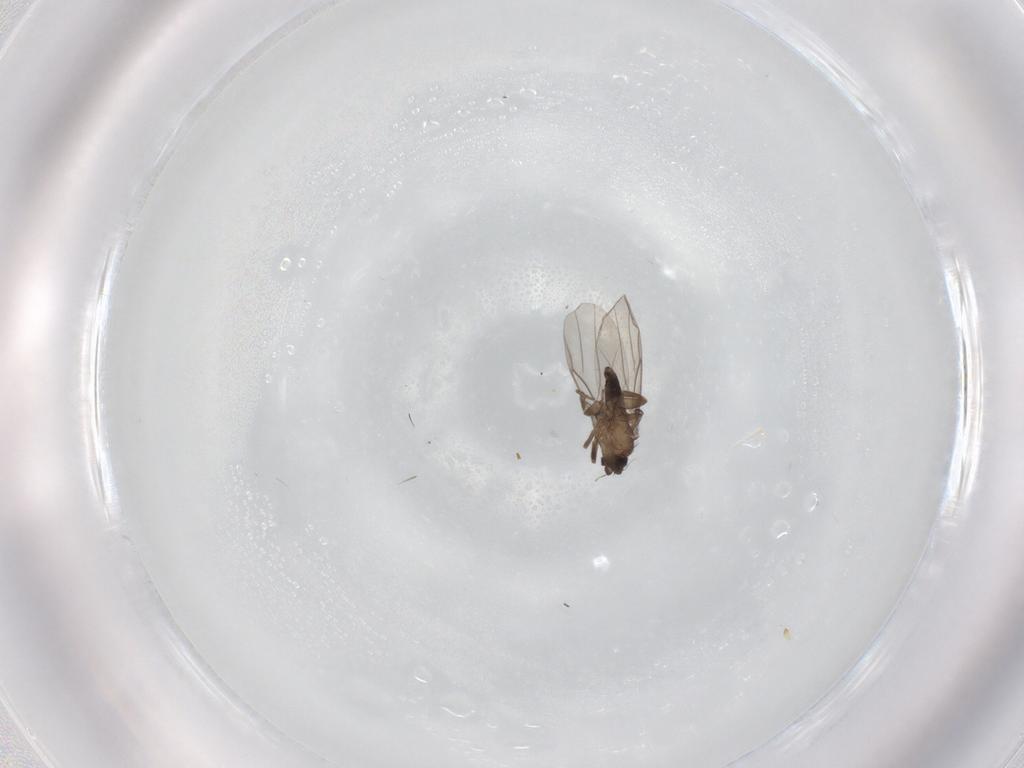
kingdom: Animalia
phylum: Arthropoda
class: Insecta
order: Diptera
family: Phoridae
